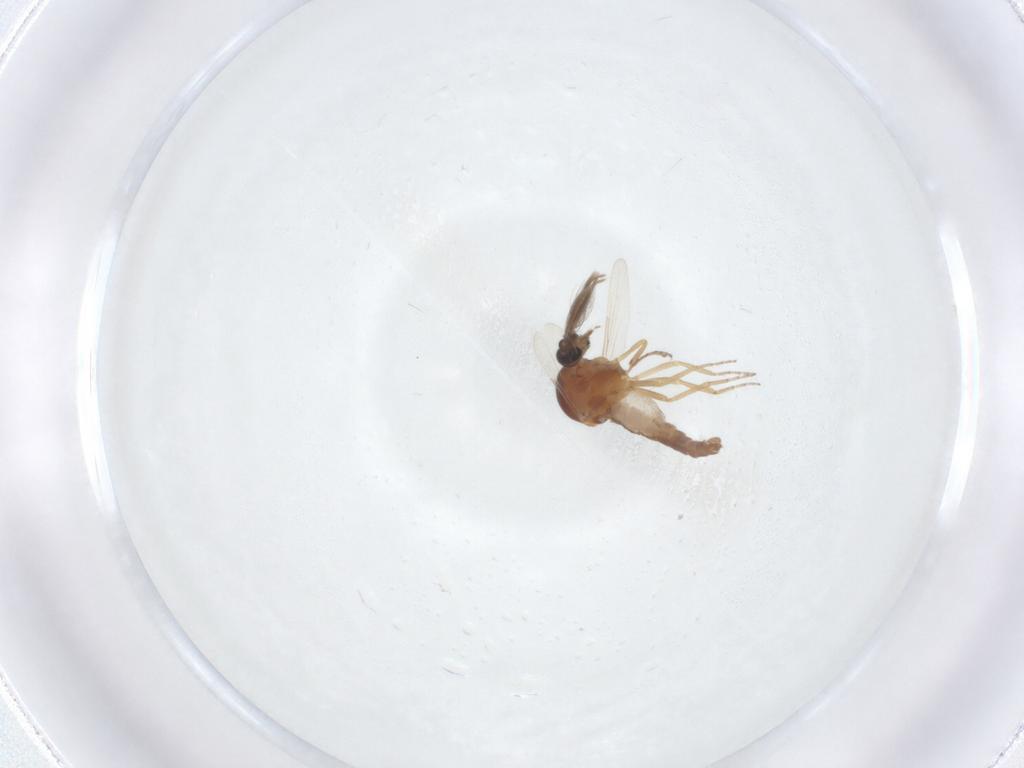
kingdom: Animalia
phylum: Arthropoda
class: Insecta
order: Diptera
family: Ceratopogonidae
